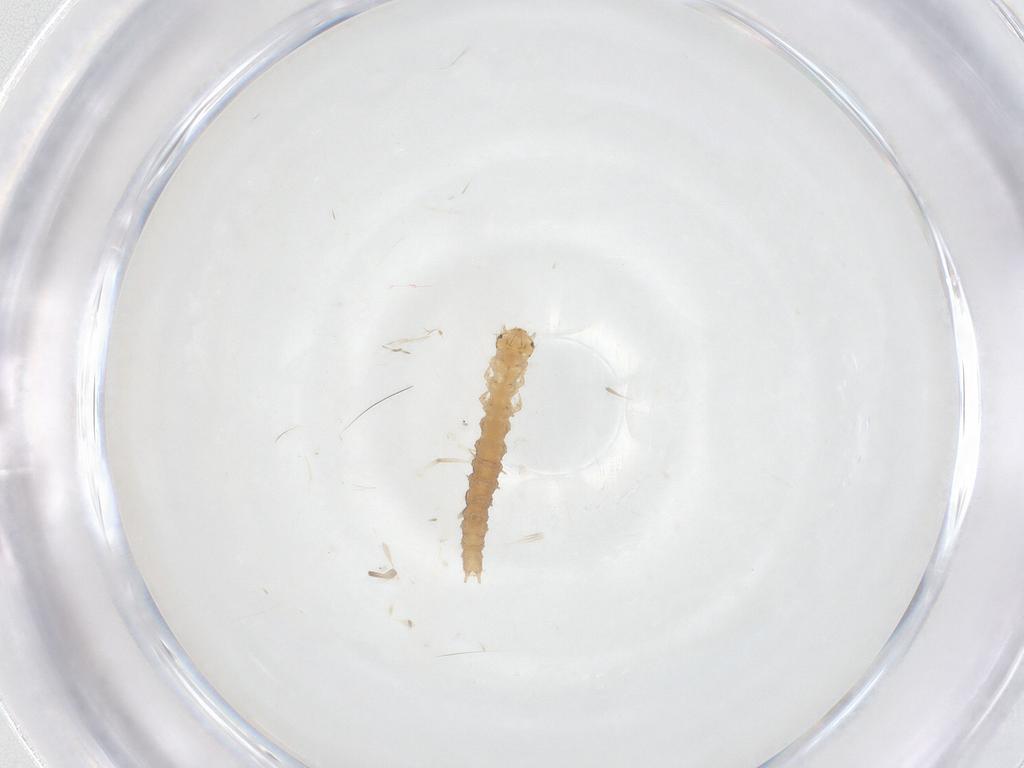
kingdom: Animalia
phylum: Arthropoda
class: Insecta
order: Lepidoptera
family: Immidae
